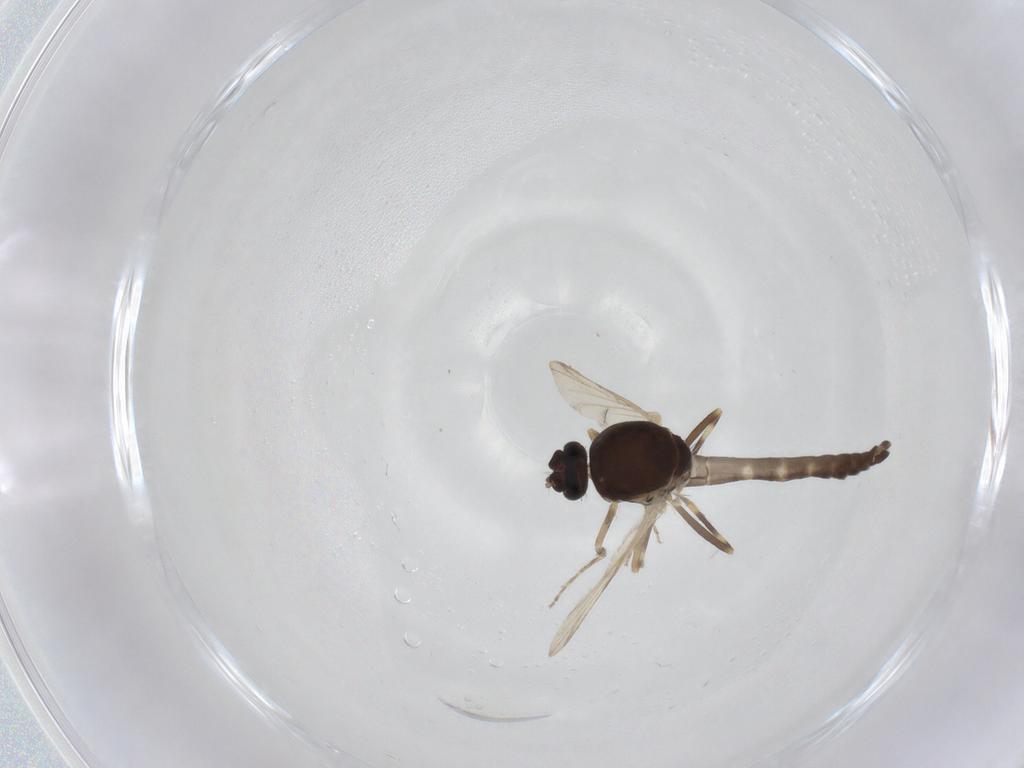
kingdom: Animalia
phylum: Arthropoda
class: Insecta
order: Diptera
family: Ceratopogonidae
